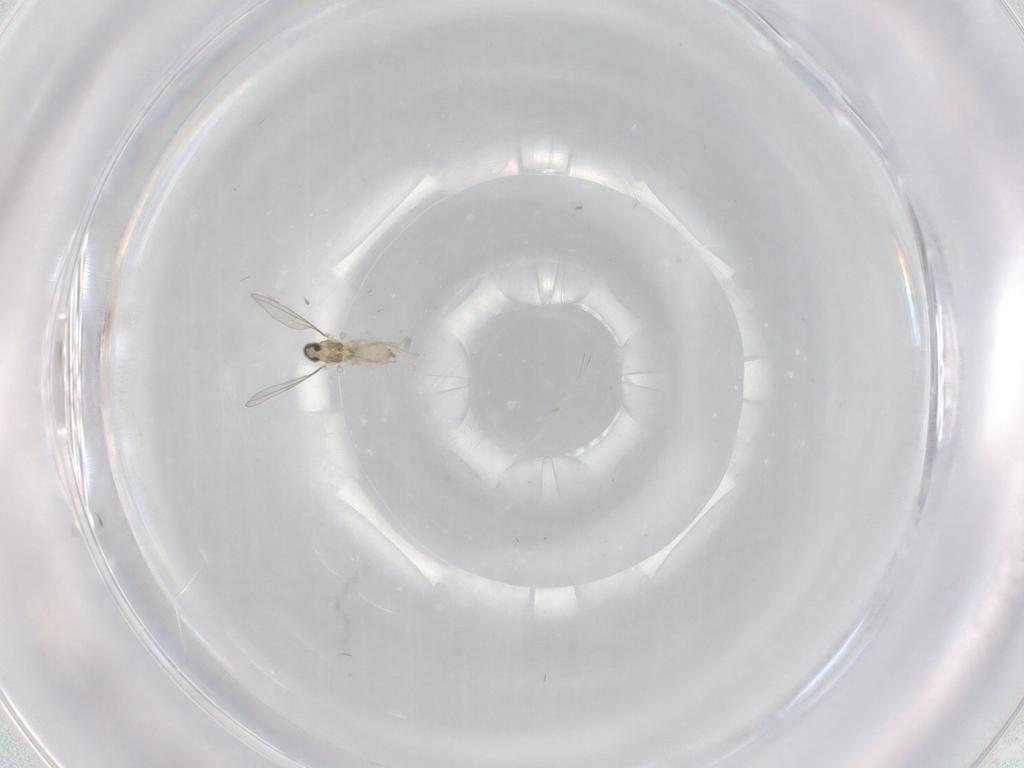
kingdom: Animalia
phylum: Arthropoda
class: Insecta
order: Diptera
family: Cecidomyiidae
